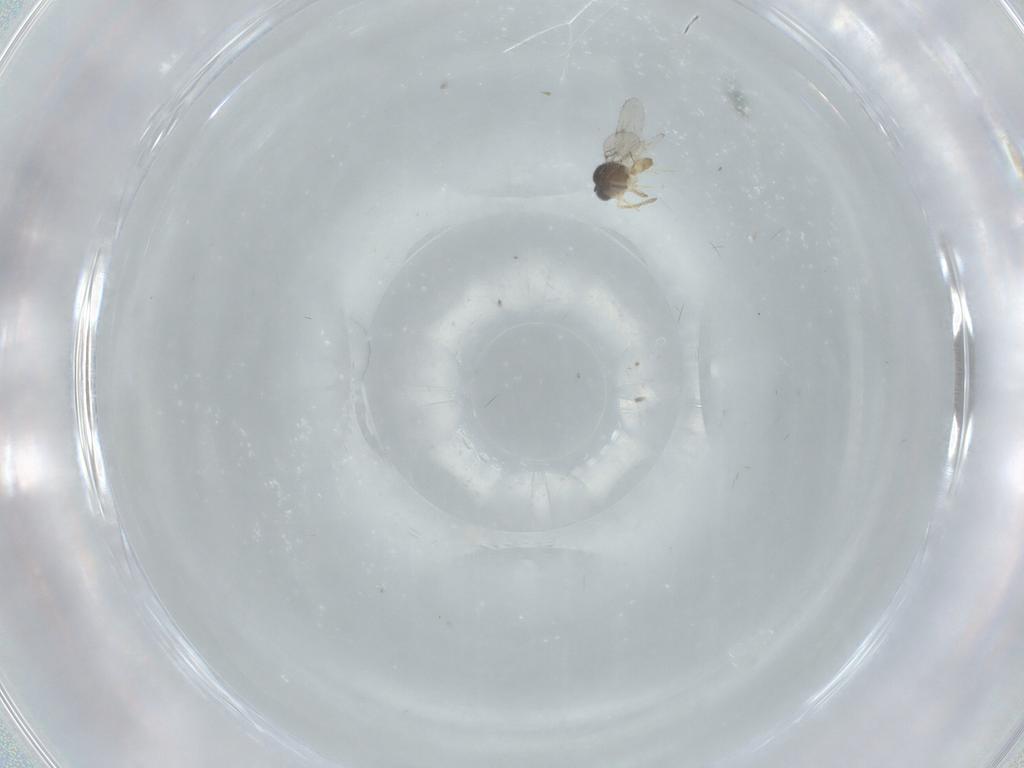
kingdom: Animalia
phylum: Arthropoda
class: Insecta
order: Hymenoptera
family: Scelionidae
